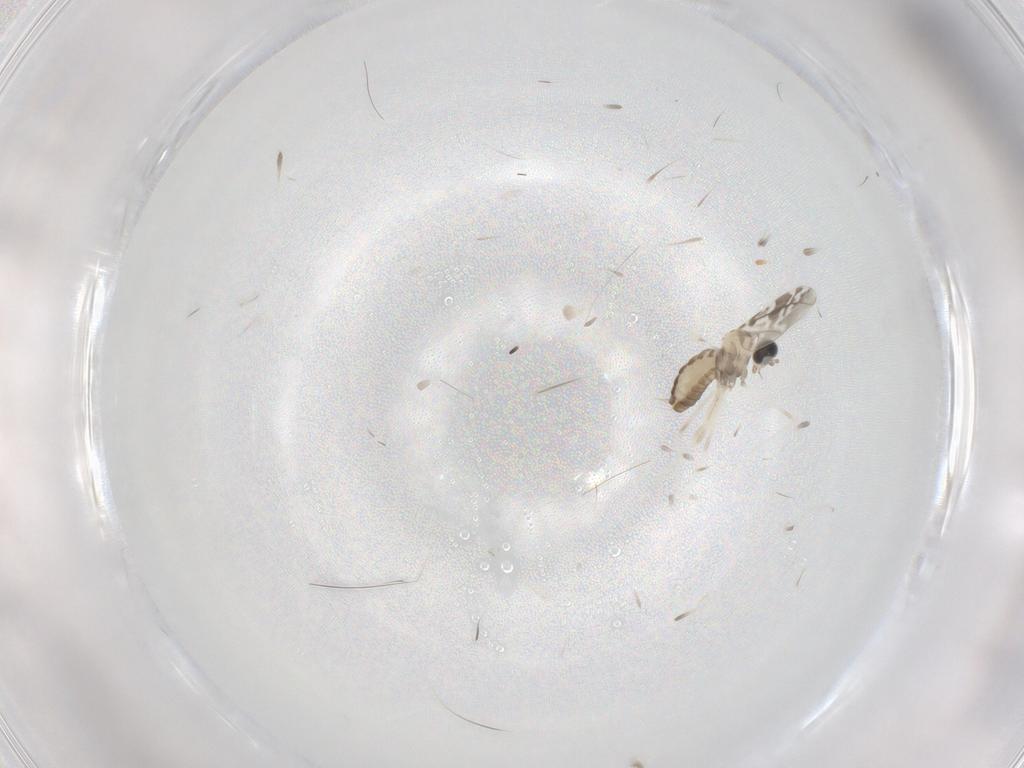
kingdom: Animalia
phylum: Arthropoda
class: Insecta
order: Diptera
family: Cecidomyiidae
